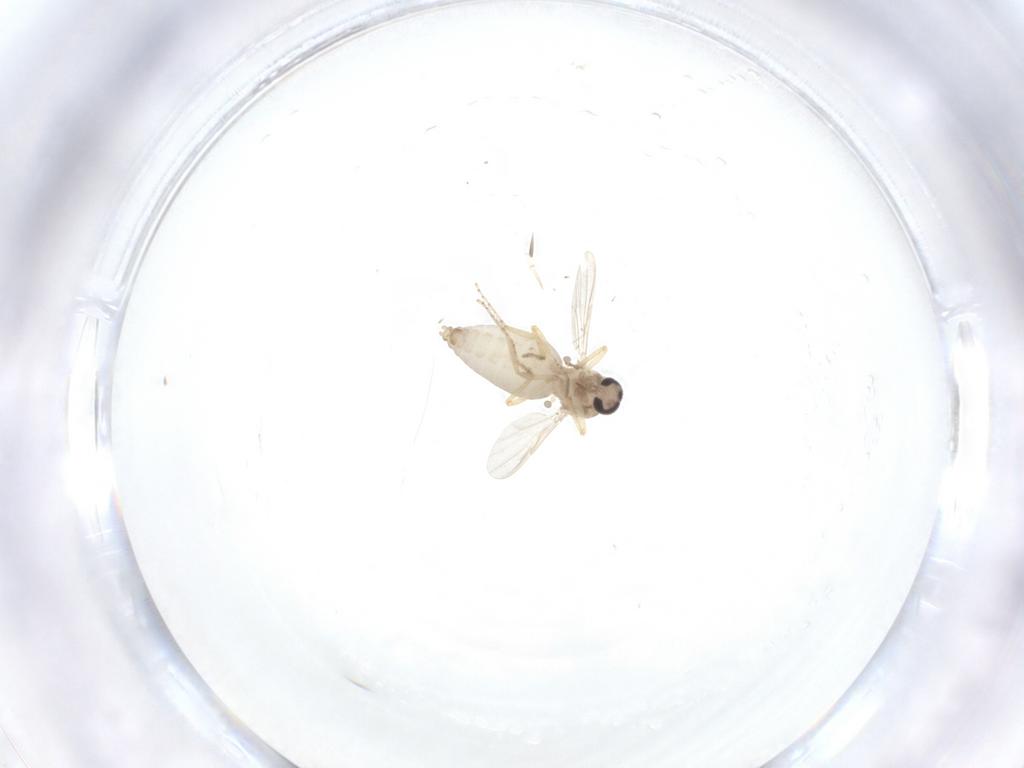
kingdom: Animalia
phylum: Arthropoda
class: Insecta
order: Diptera
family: Ceratopogonidae
